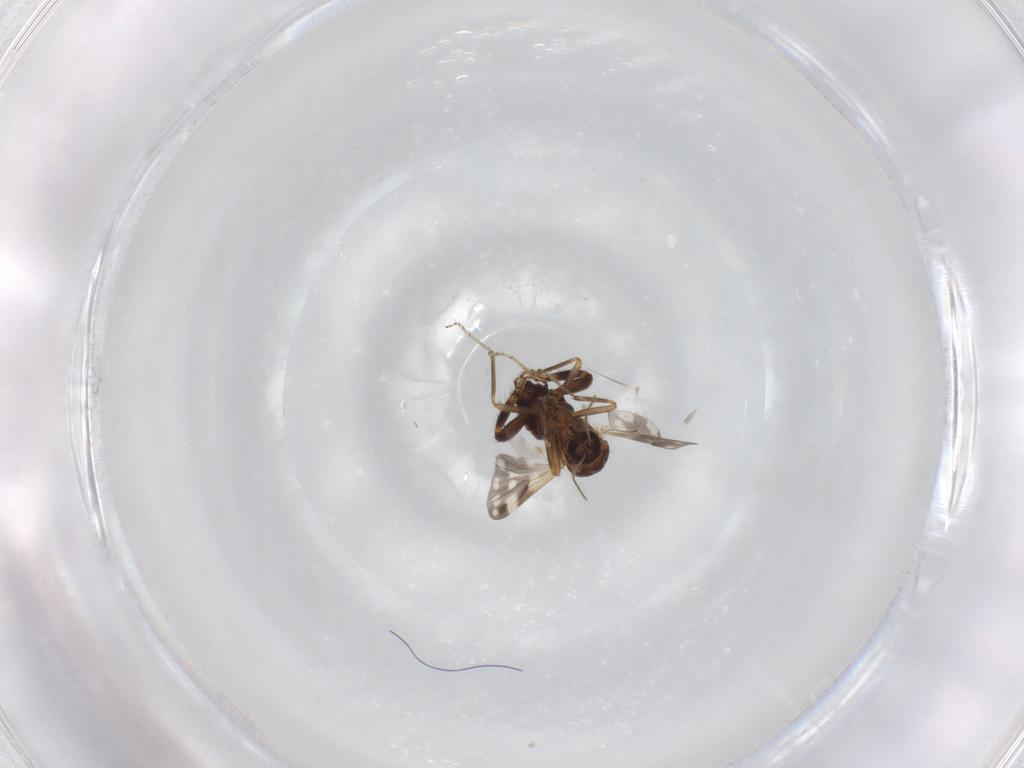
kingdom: Animalia
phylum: Arthropoda
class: Insecta
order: Diptera
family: Ceratopogonidae
